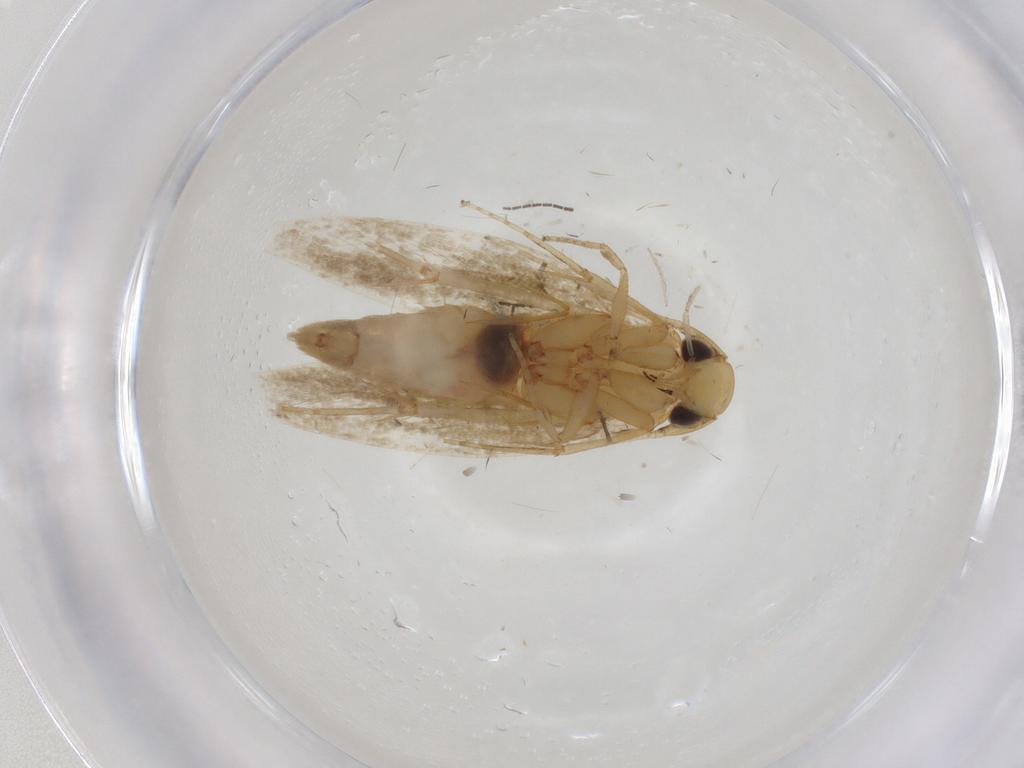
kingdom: Animalia
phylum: Arthropoda
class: Insecta
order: Lepidoptera
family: Tineidae
